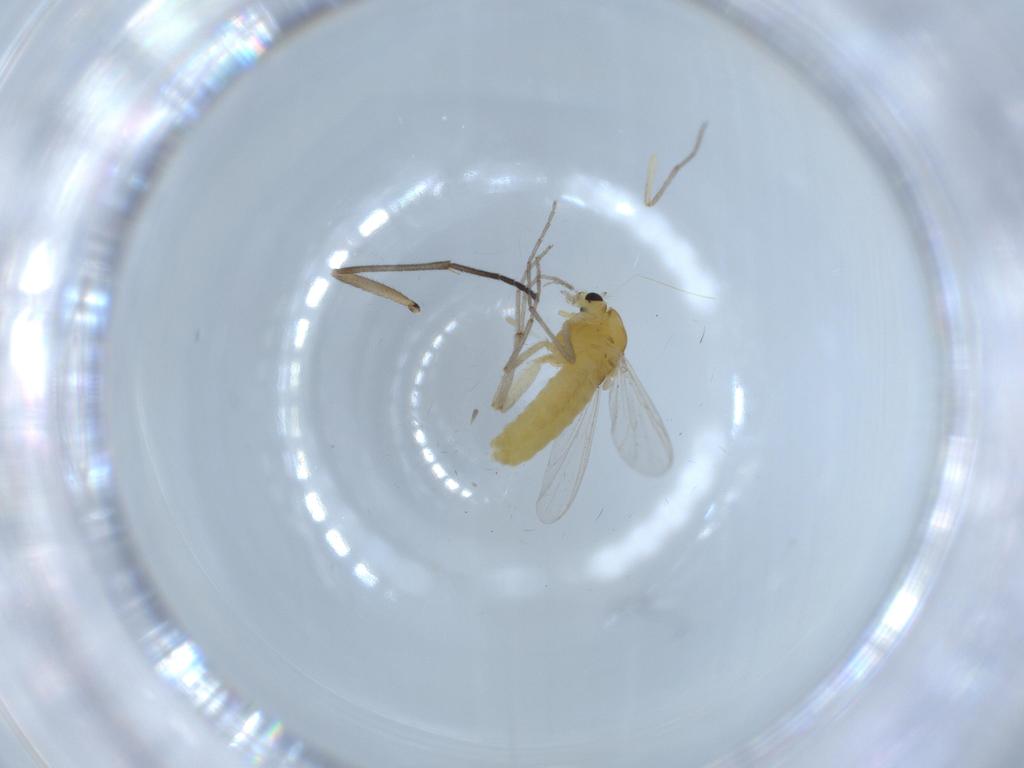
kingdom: Animalia
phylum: Arthropoda
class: Insecta
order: Diptera
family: Chironomidae
